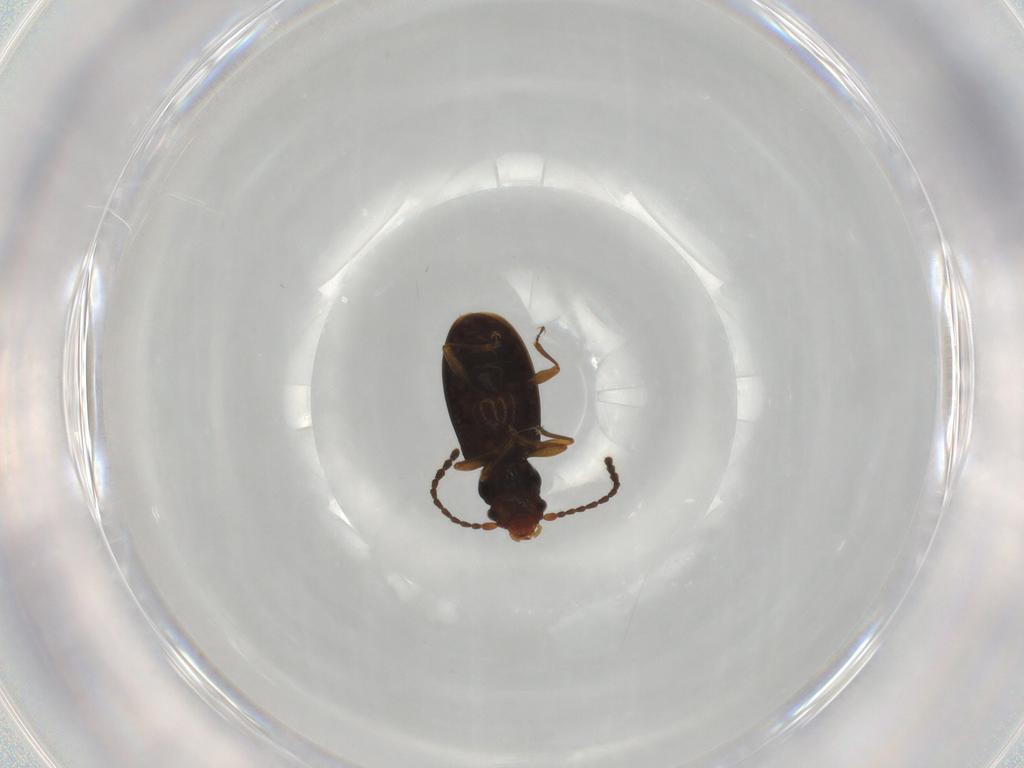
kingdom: Animalia
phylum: Arthropoda
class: Insecta
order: Coleoptera
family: Laemophloeidae
